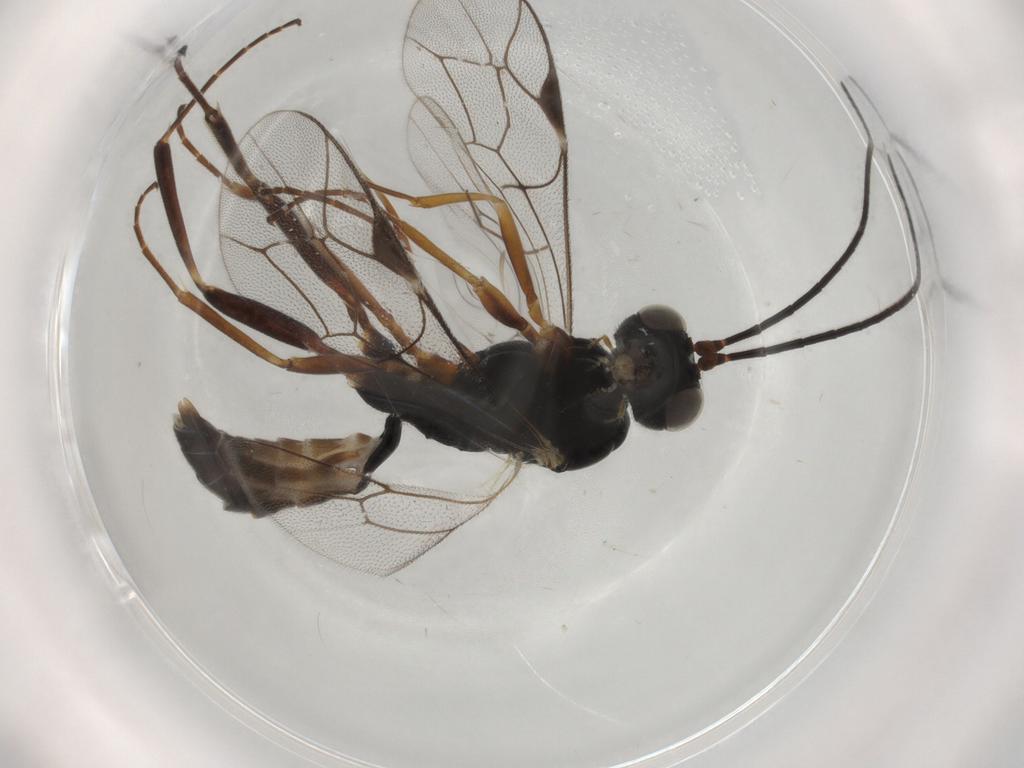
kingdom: Animalia
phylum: Arthropoda
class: Insecta
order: Hymenoptera
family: Ichneumonidae
